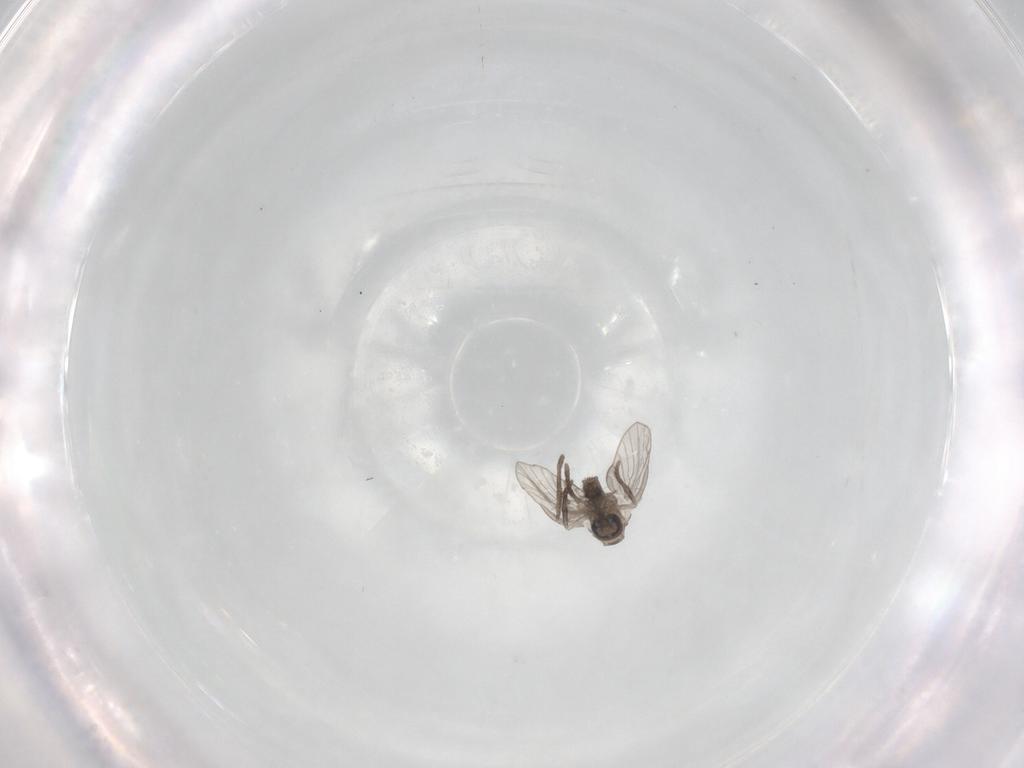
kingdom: Animalia
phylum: Arthropoda
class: Insecta
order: Diptera
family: Psychodidae
